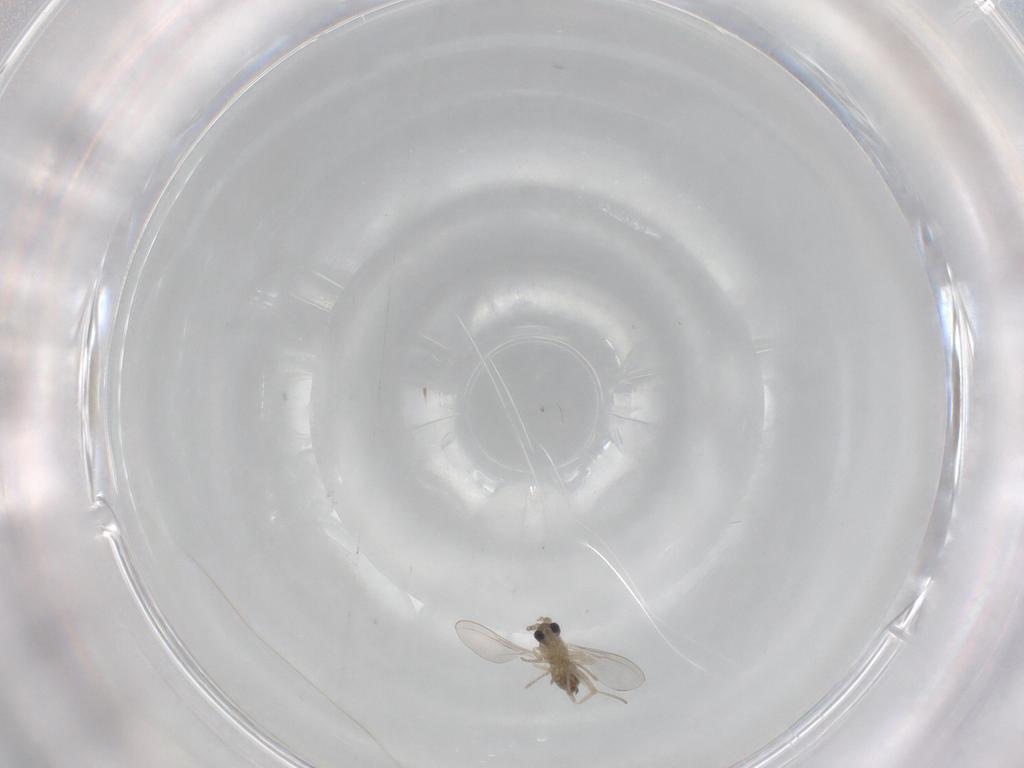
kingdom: Animalia
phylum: Arthropoda
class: Insecta
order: Diptera
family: Cecidomyiidae
